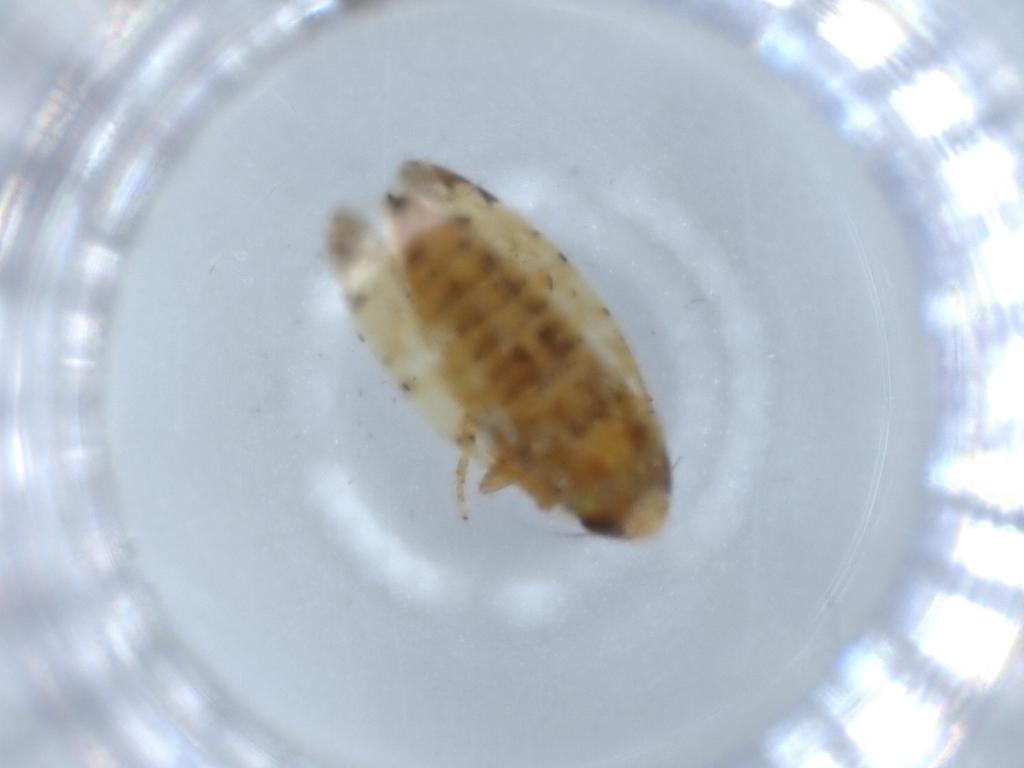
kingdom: Animalia
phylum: Arthropoda
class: Insecta
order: Hemiptera
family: Cicadellidae
